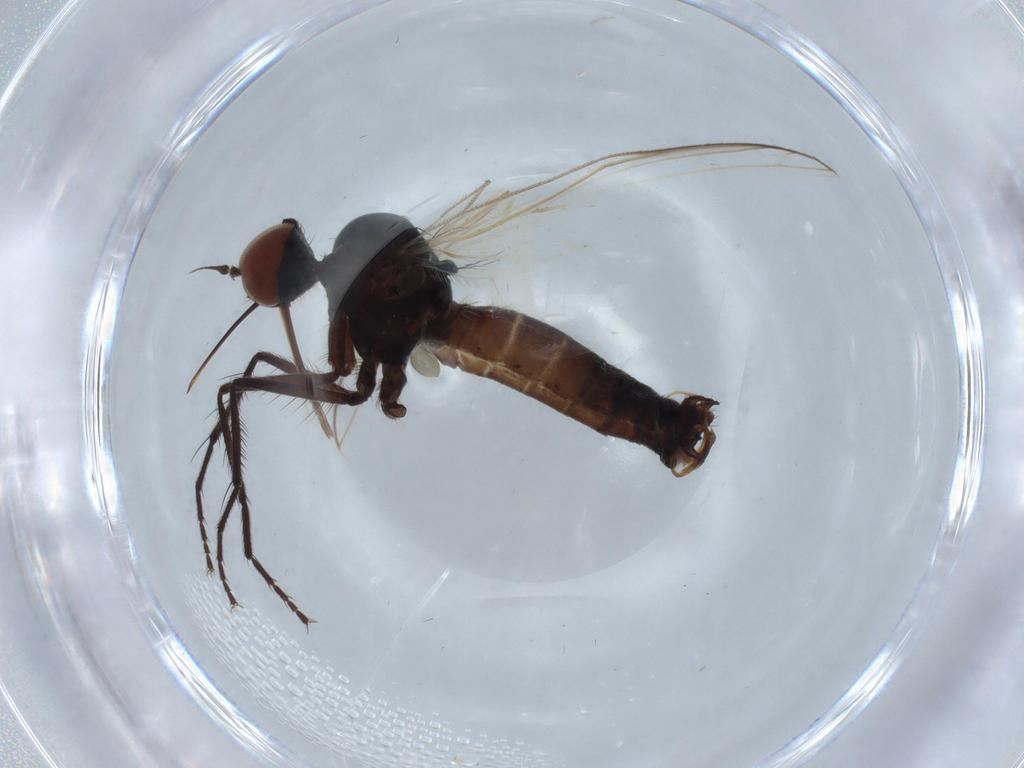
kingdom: Animalia
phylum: Arthropoda
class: Insecta
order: Diptera
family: Empididae
